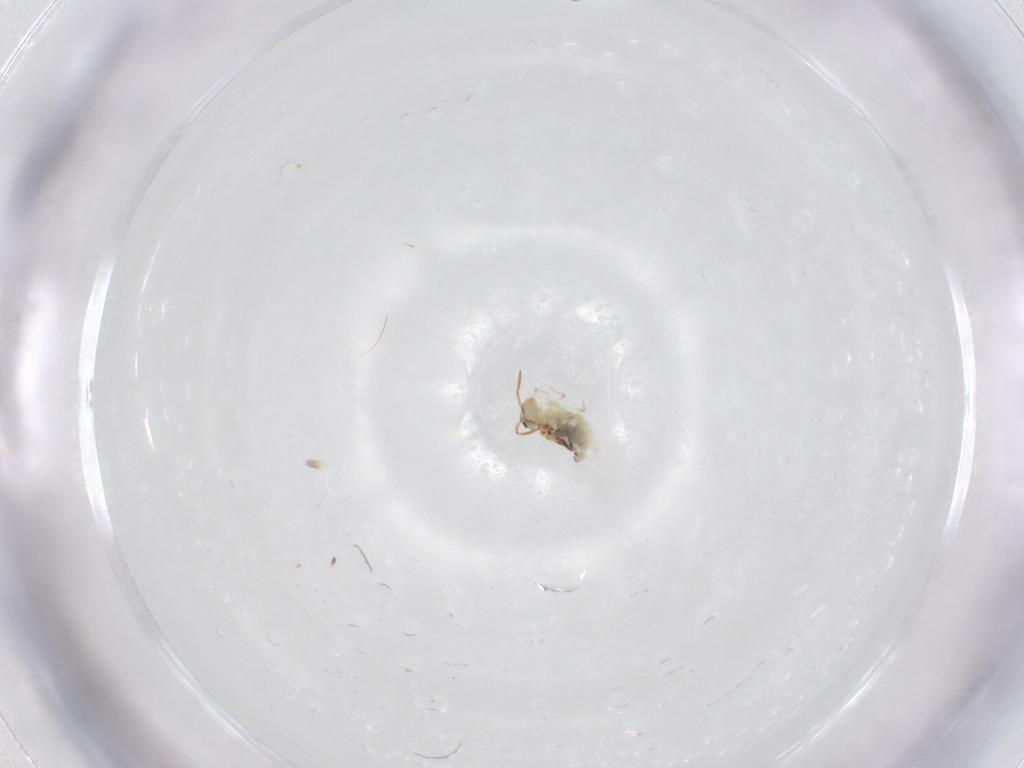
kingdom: Animalia
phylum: Arthropoda
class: Collembola
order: Symphypleona
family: Bourletiellidae
